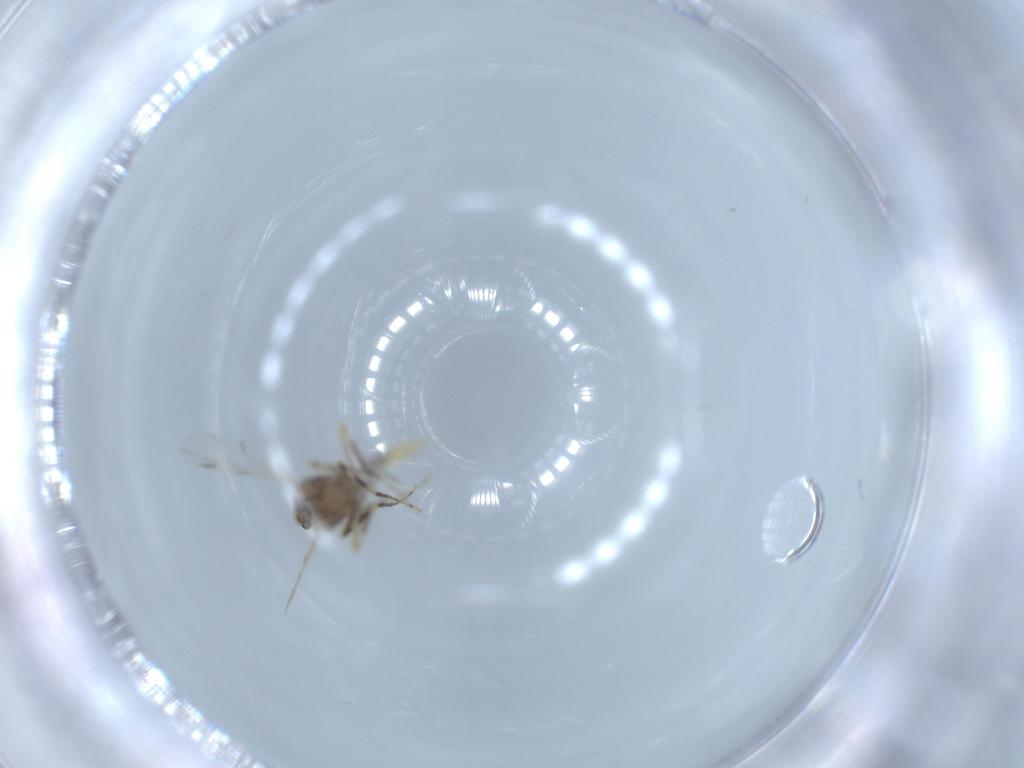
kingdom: Animalia
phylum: Arthropoda
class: Insecta
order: Diptera
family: Ceratopogonidae
